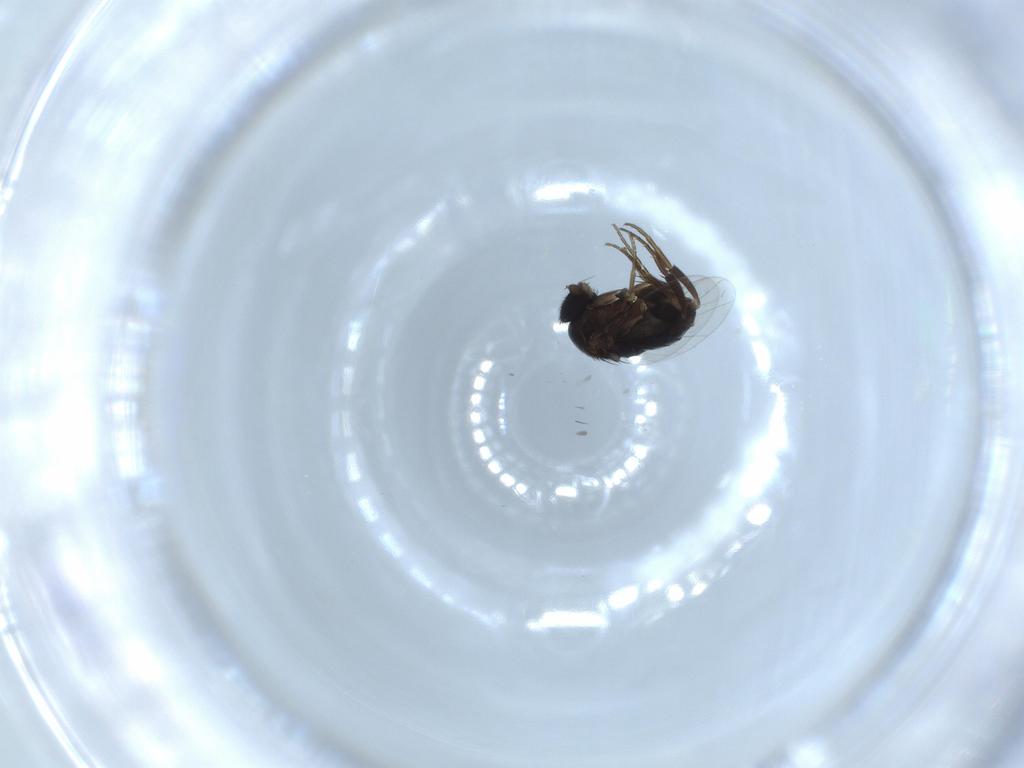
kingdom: Animalia
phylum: Arthropoda
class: Insecta
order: Diptera
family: Phoridae
